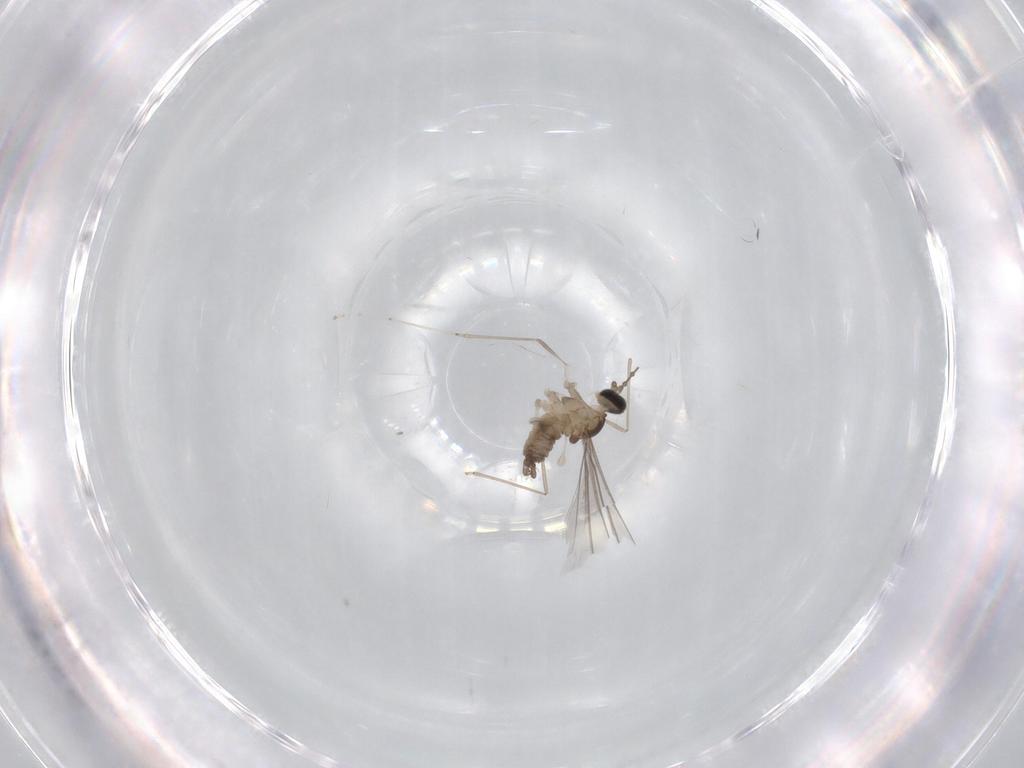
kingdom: Animalia
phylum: Arthropoda
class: Insecta
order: Diptera
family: Cecidomyiidae
